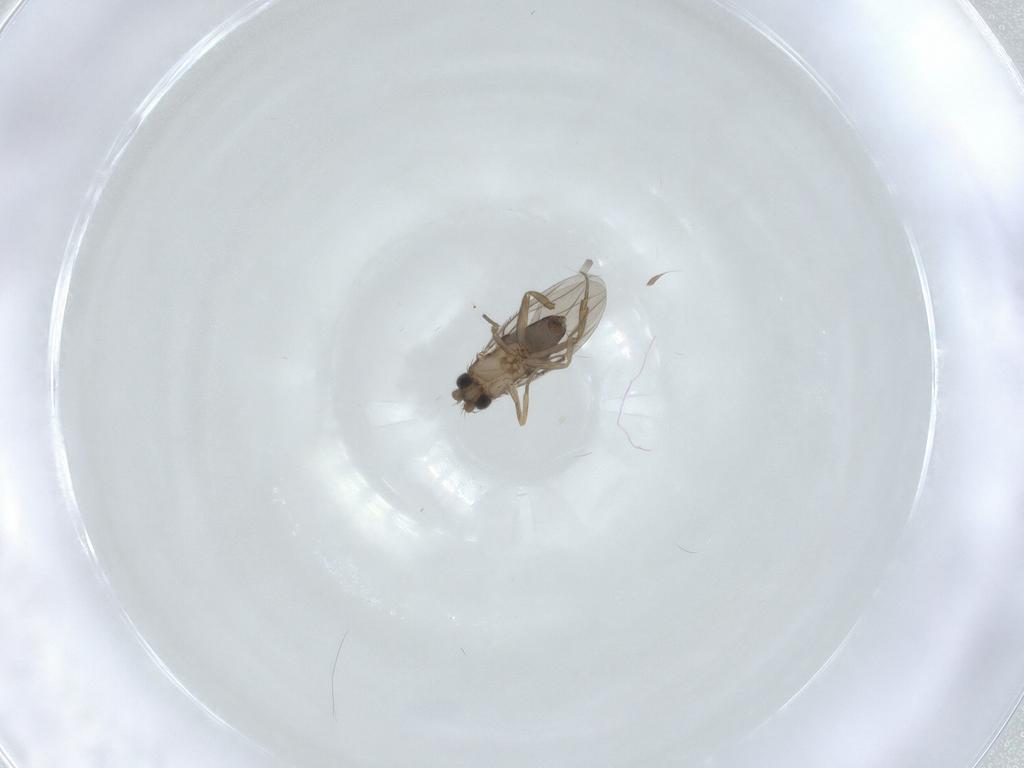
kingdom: Animalia
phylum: Arthropoda
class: Insecta
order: Diptera
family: Phoridae
